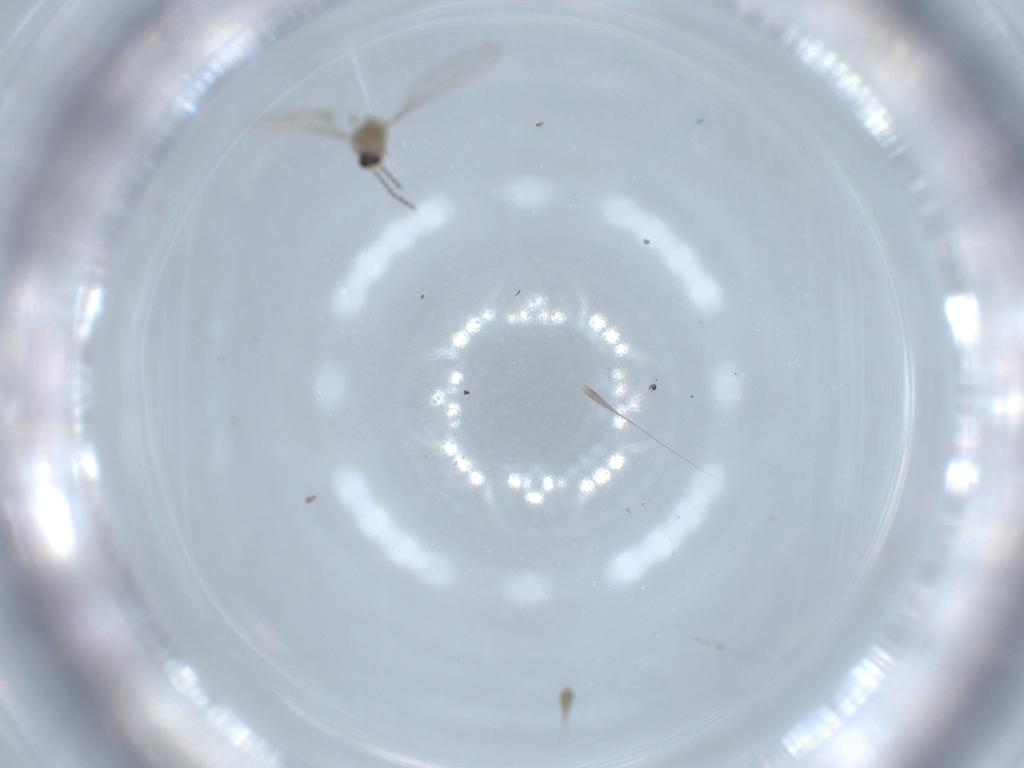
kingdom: Animalia
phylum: Arthropoda
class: Insecta
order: Diptera
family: Cecidomyiidae
